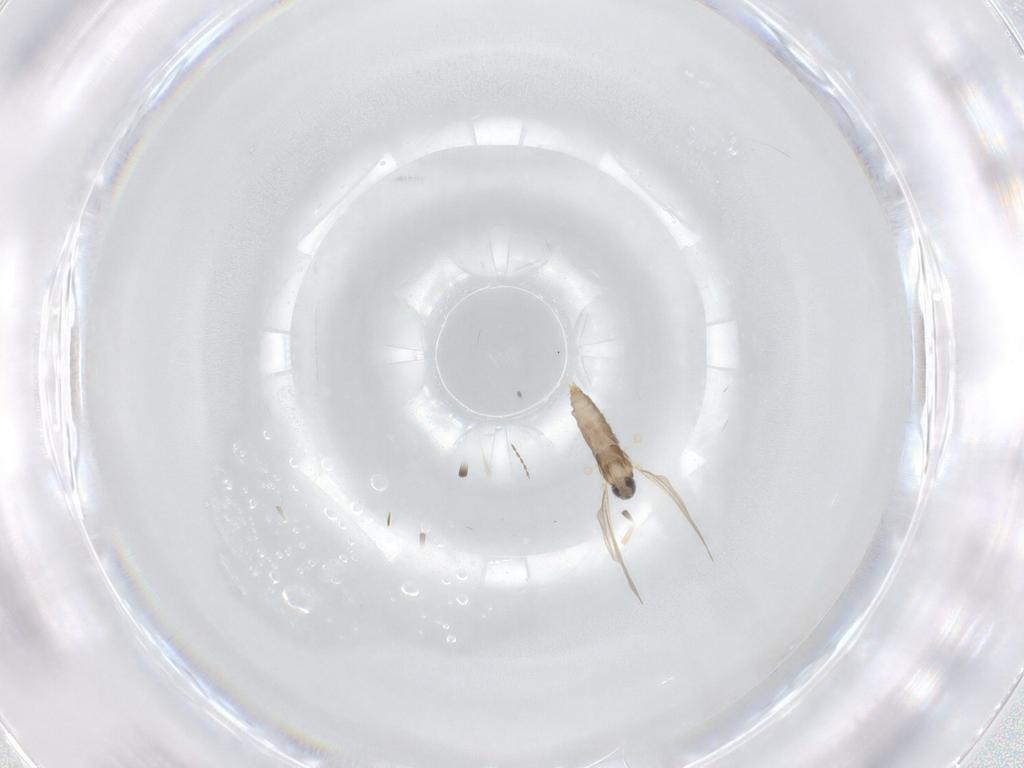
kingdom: Animalia
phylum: Arthropoda
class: Insecta
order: Diptera
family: Cecidomyiidae
